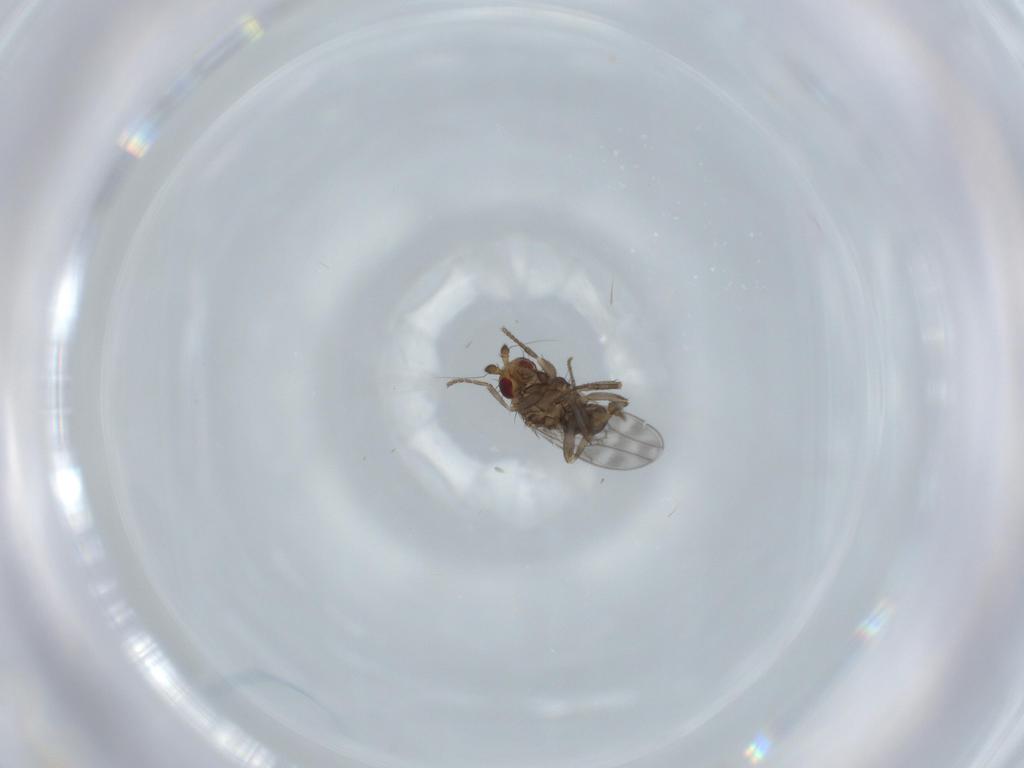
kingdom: Animalia
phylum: Arthropoda
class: Insecta
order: Diptera
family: Sphaeroceridae
